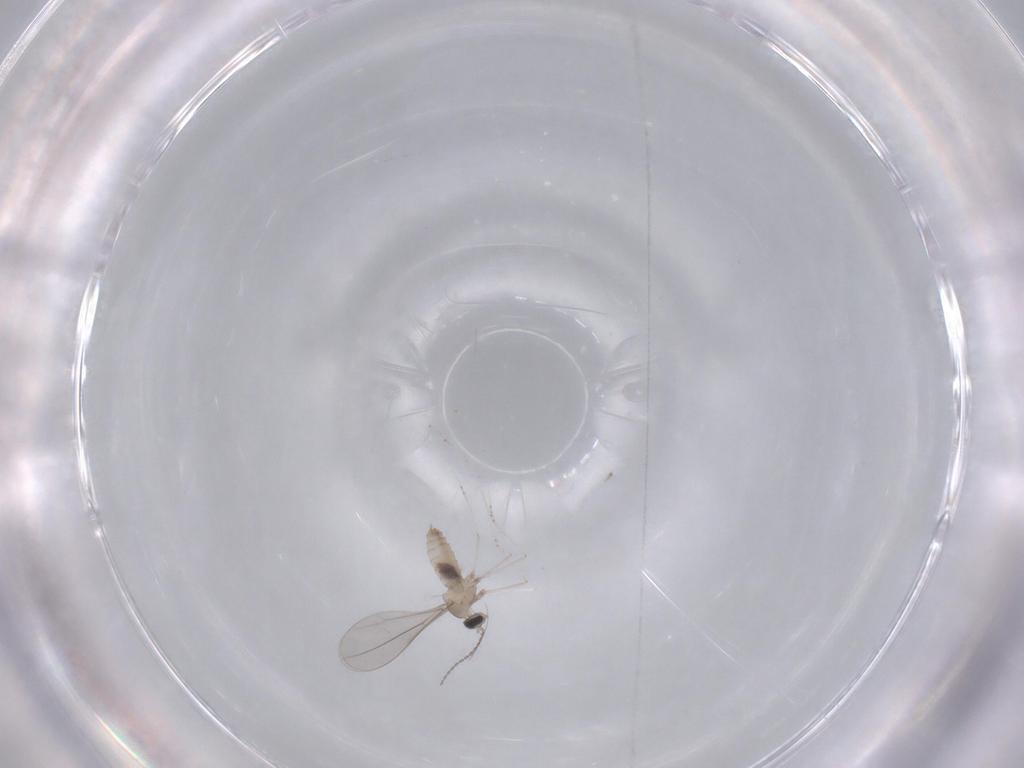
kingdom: Animalia
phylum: Arthropoda
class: Insecta
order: Diptera
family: Cecidomyiidae
